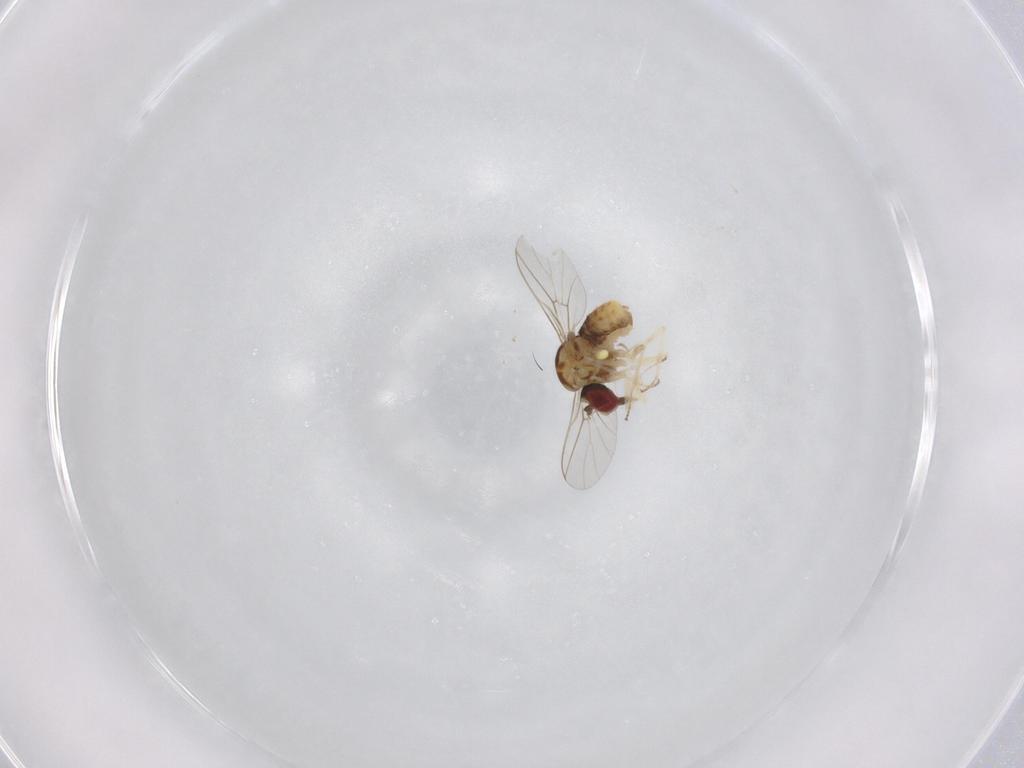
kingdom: Animalia
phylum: Arthropoda
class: Insecta
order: Diptera
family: Bombyliidae
